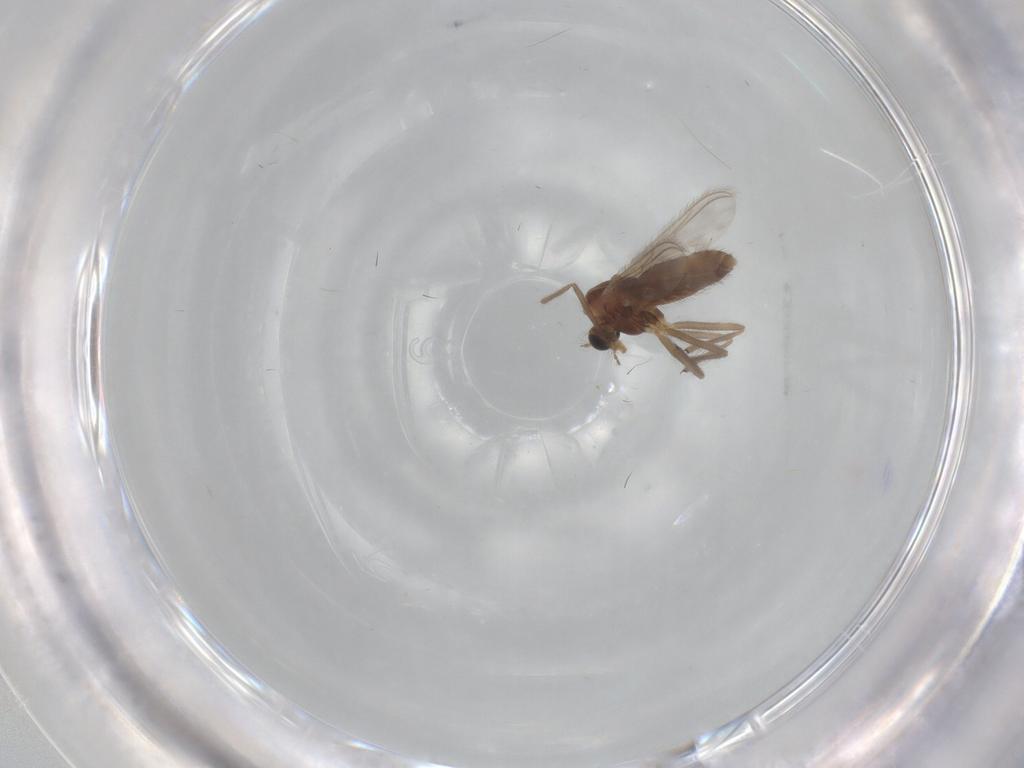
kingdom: Animalia
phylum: Arthropoda
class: Insecta
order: Diptera
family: Chironomidae
